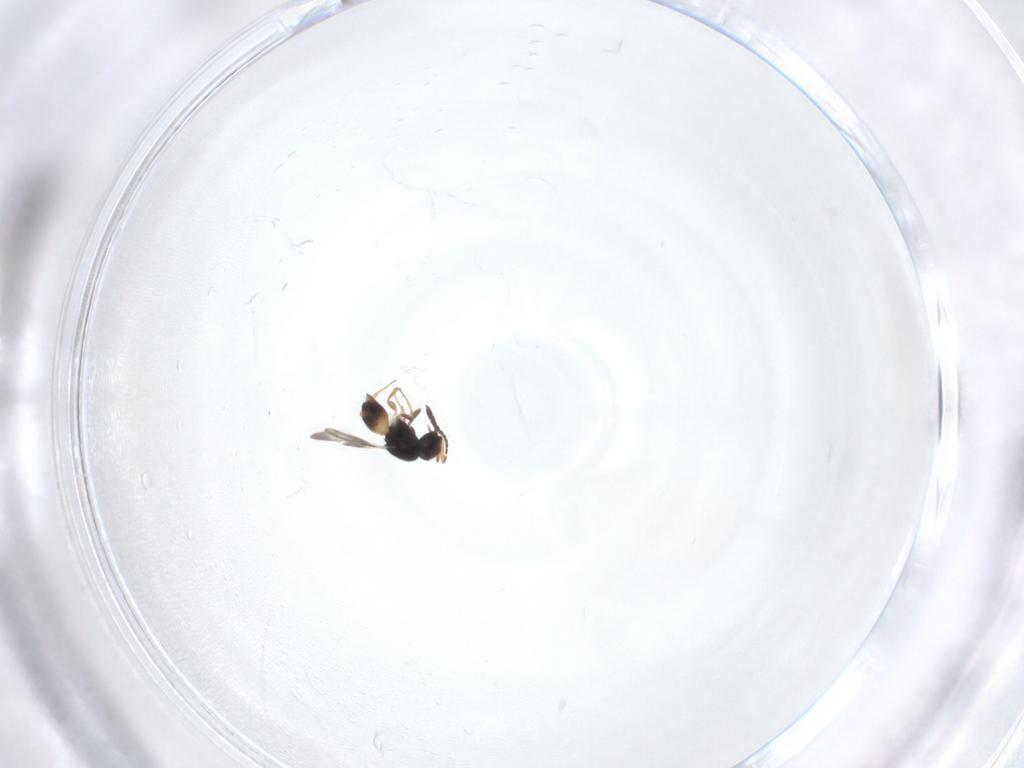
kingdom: Animalia
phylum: Arthropoda
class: Insecta
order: Hymenoptera
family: Ceraphronidae
